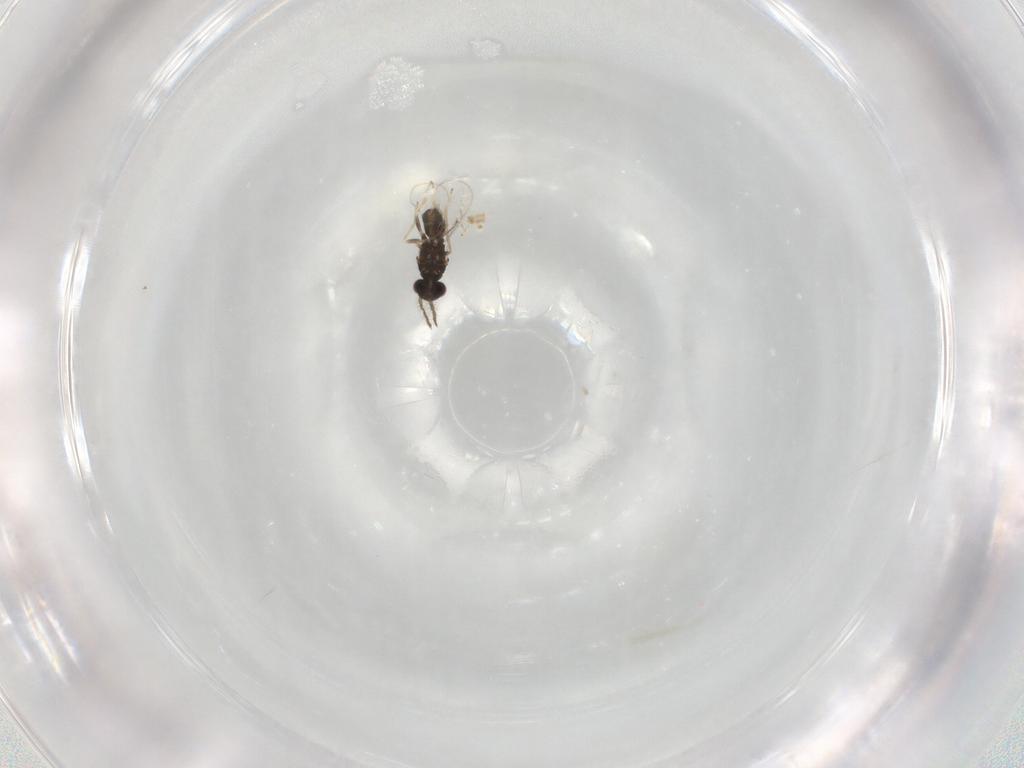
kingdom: Animalia
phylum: Arthropoda
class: Insecta
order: Hymenoptera
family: Eulophidae
